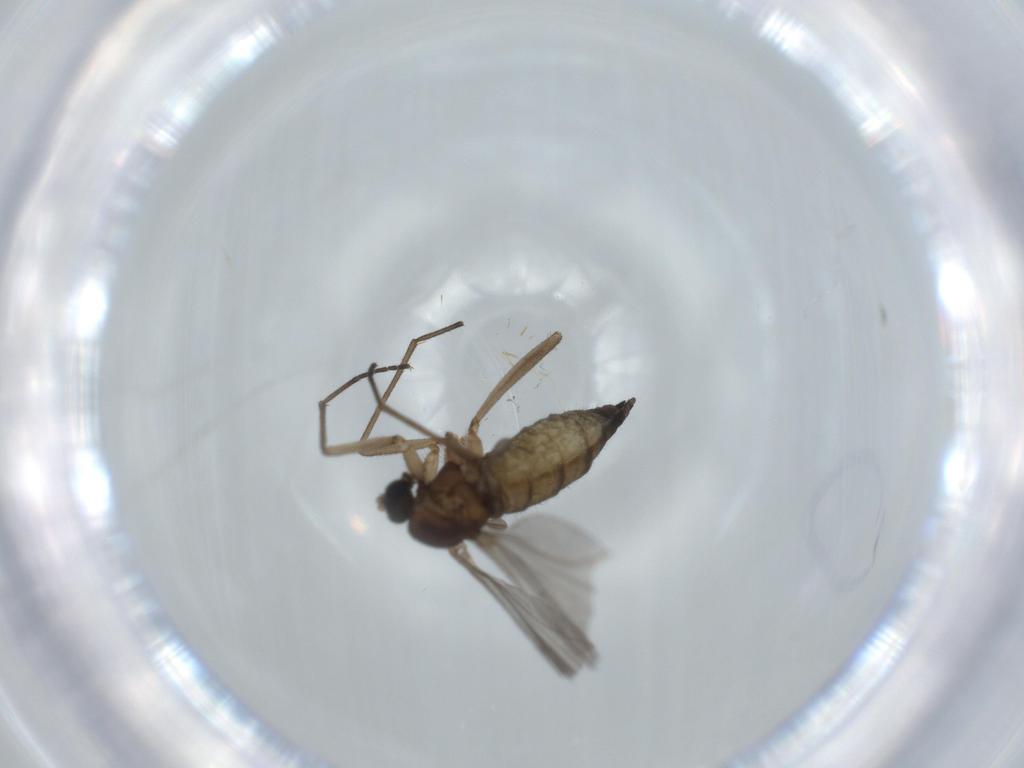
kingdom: Animalia
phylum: Arthropoda
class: Insecta
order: Diptera
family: Sciaridae
